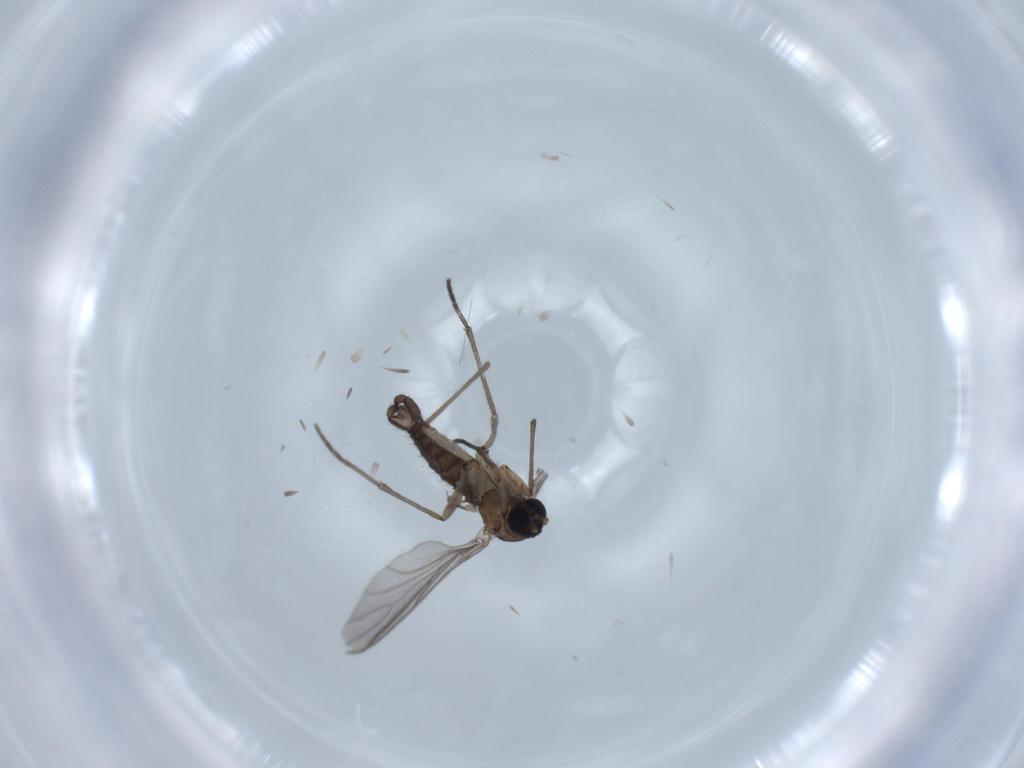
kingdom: Animalia
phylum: Arthropoda
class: Insecta
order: Diptera
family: Sciaridae
